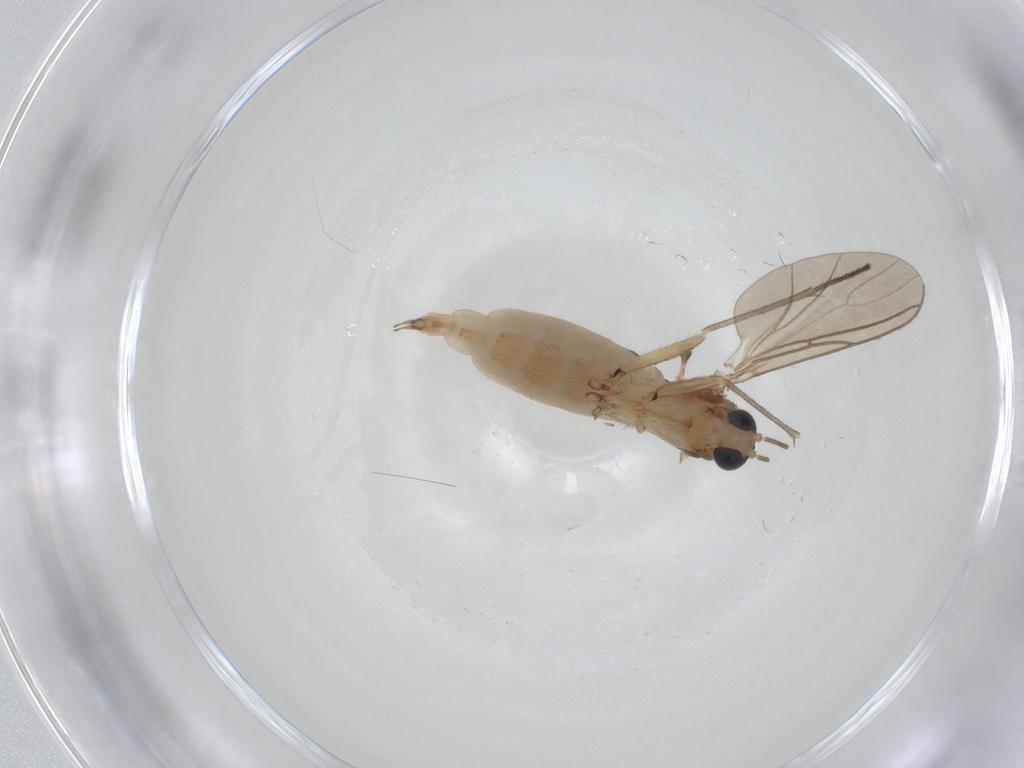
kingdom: Animalia
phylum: Arthropoda
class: Insecta
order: Diptera
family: Sciaridae
